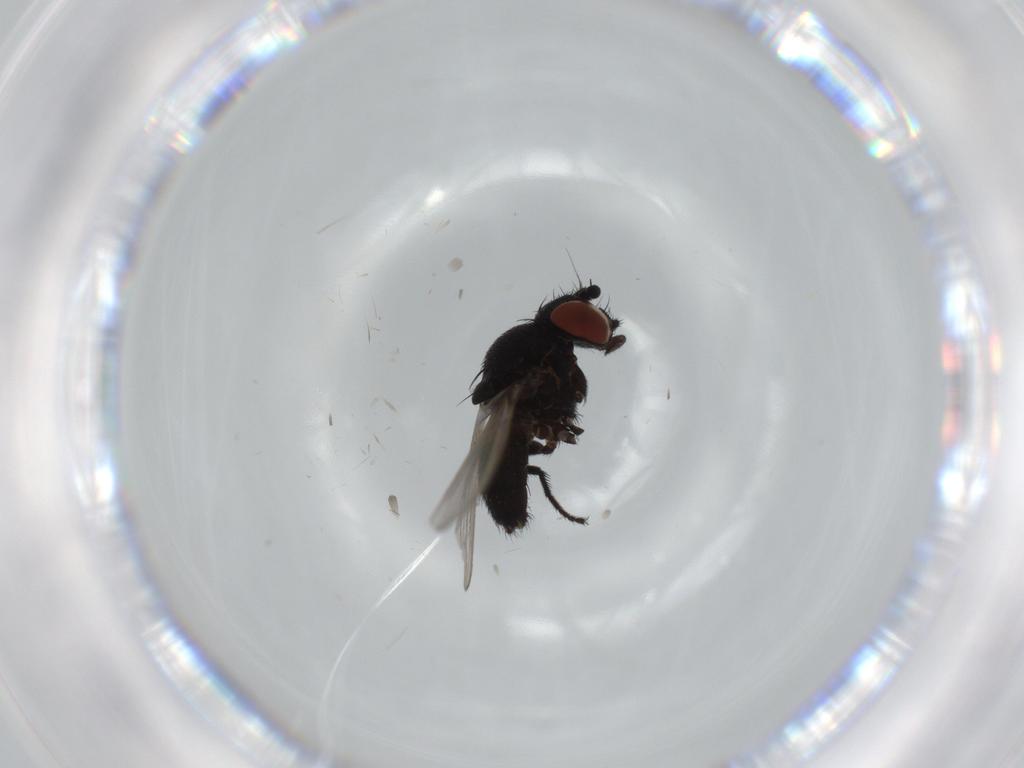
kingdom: Animalia
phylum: Arthropoda
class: Insecta
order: Diptera
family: Milichiidae
